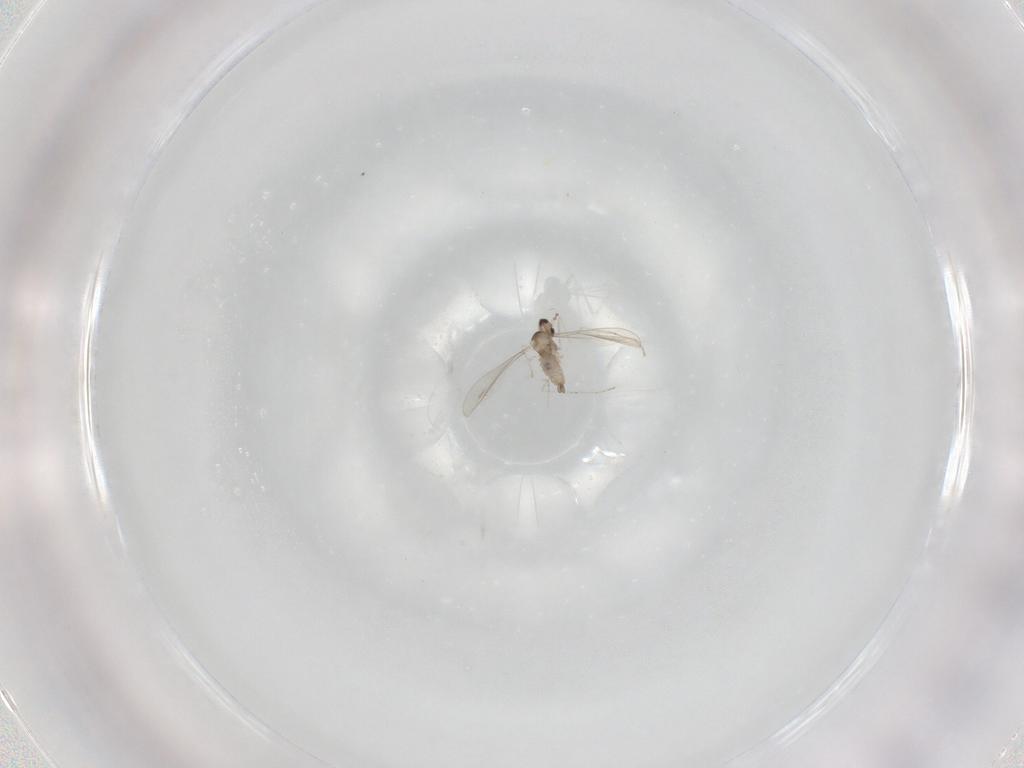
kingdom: Animalia
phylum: Arthropoda
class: Insecta
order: Diptera
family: Cecidomyiidae
